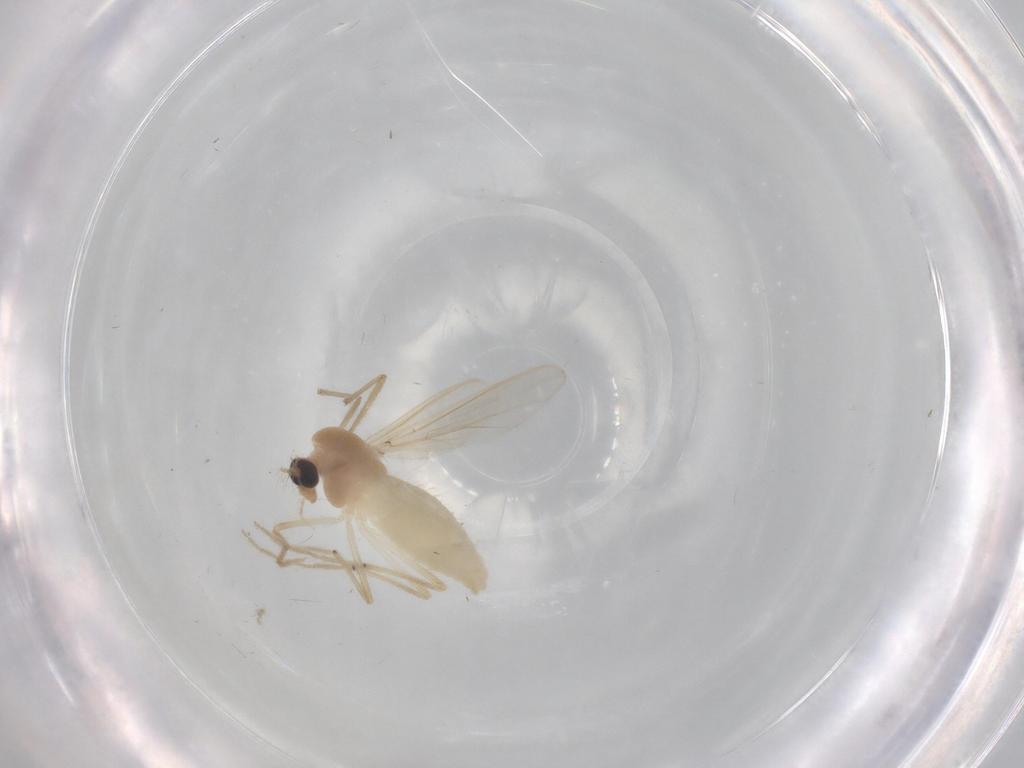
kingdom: Animalia
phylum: Arthropoda
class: Insecta
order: Diptera
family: Chironomidae
